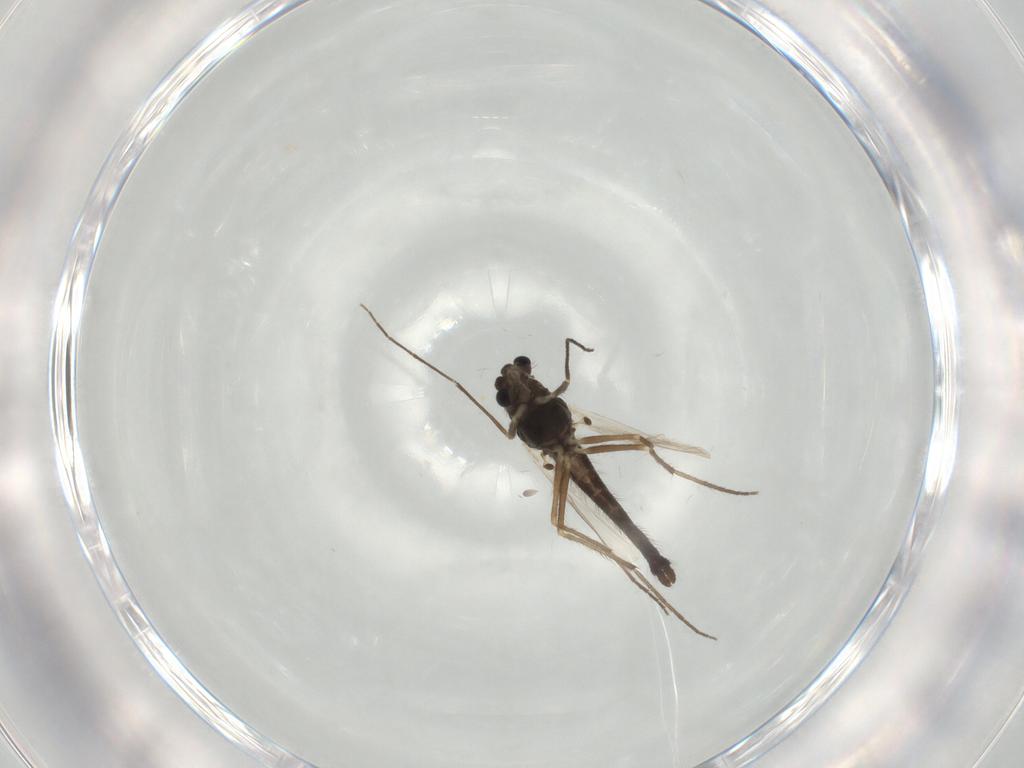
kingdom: Animalia
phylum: Arthropoda
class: Insecta
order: Diptera
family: Chironomidae
